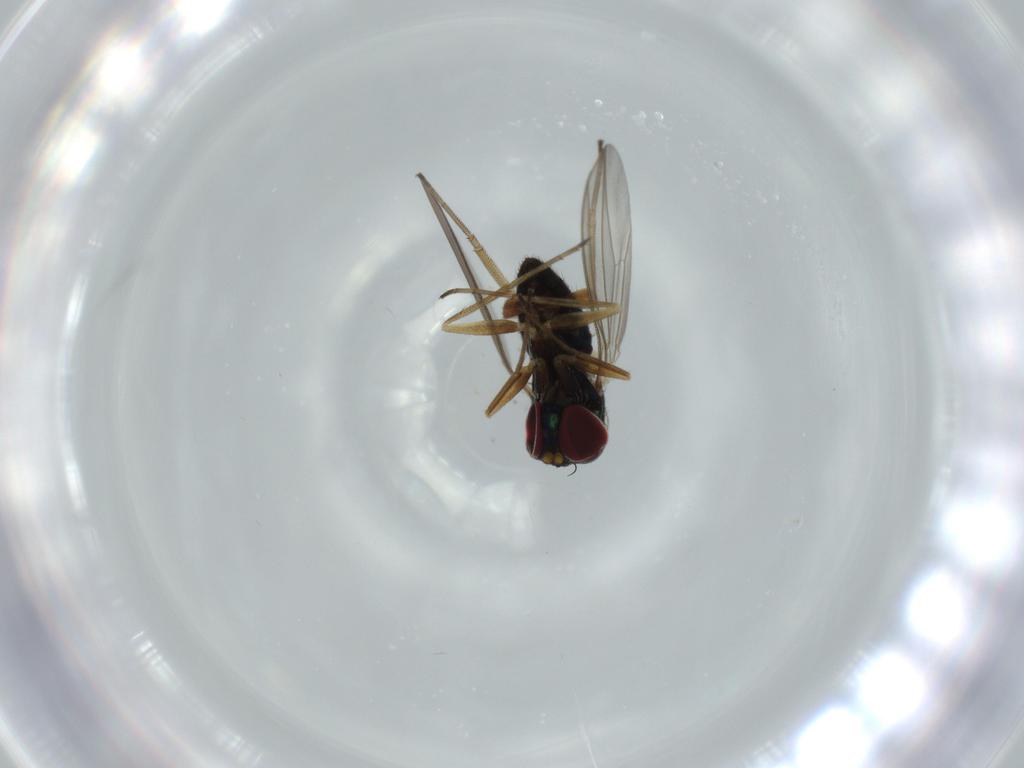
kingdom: Animalia
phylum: Arthropoda
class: Insecta
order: Diptera
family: Dolichopodidae
